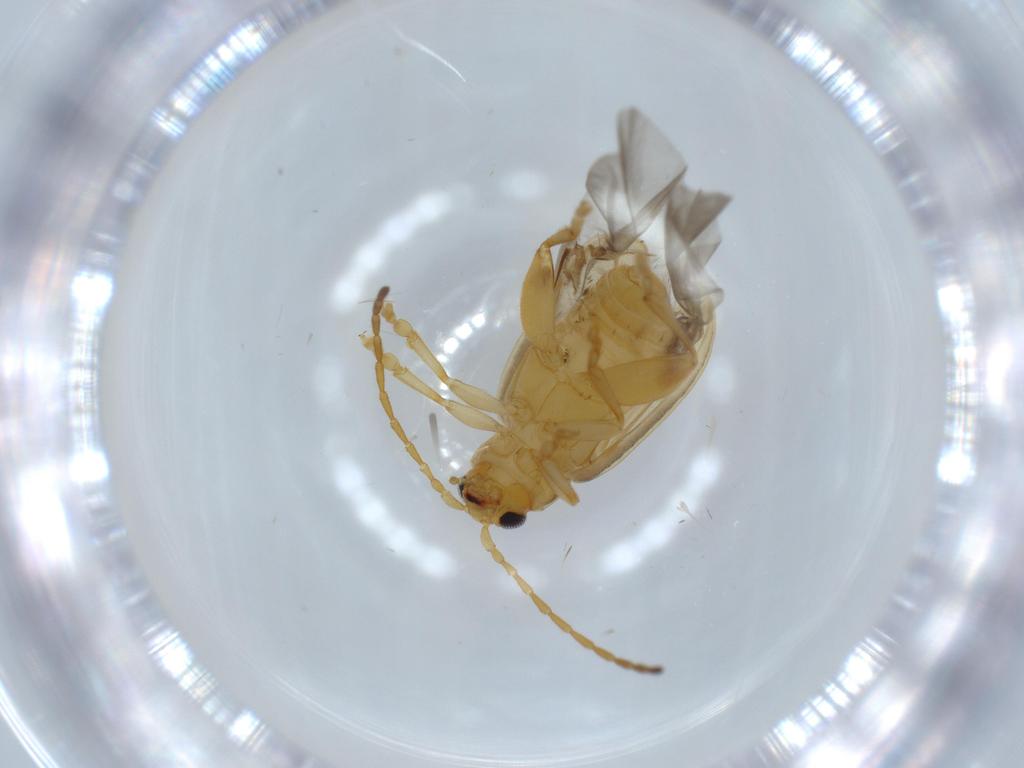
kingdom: Animalia
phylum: Arthropoda
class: Insecta
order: Coleoptera
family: Chrysomelidae
